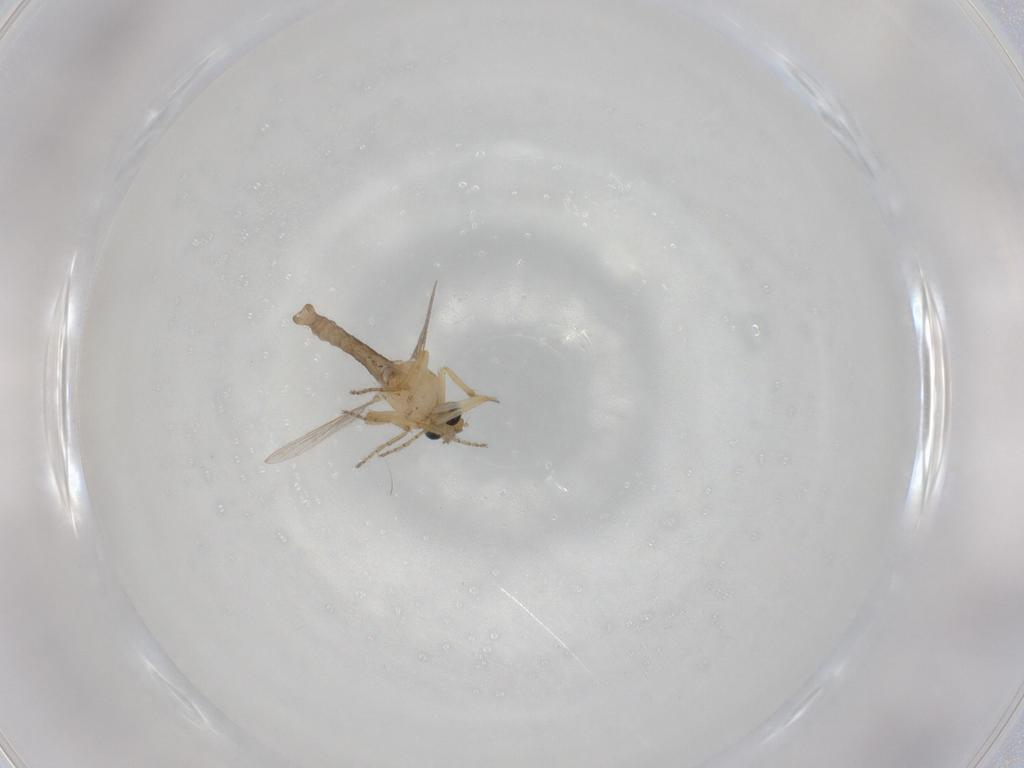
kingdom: Animalia
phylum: Arthropoda
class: Insecta
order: Diptera
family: Ceratopogonidae
